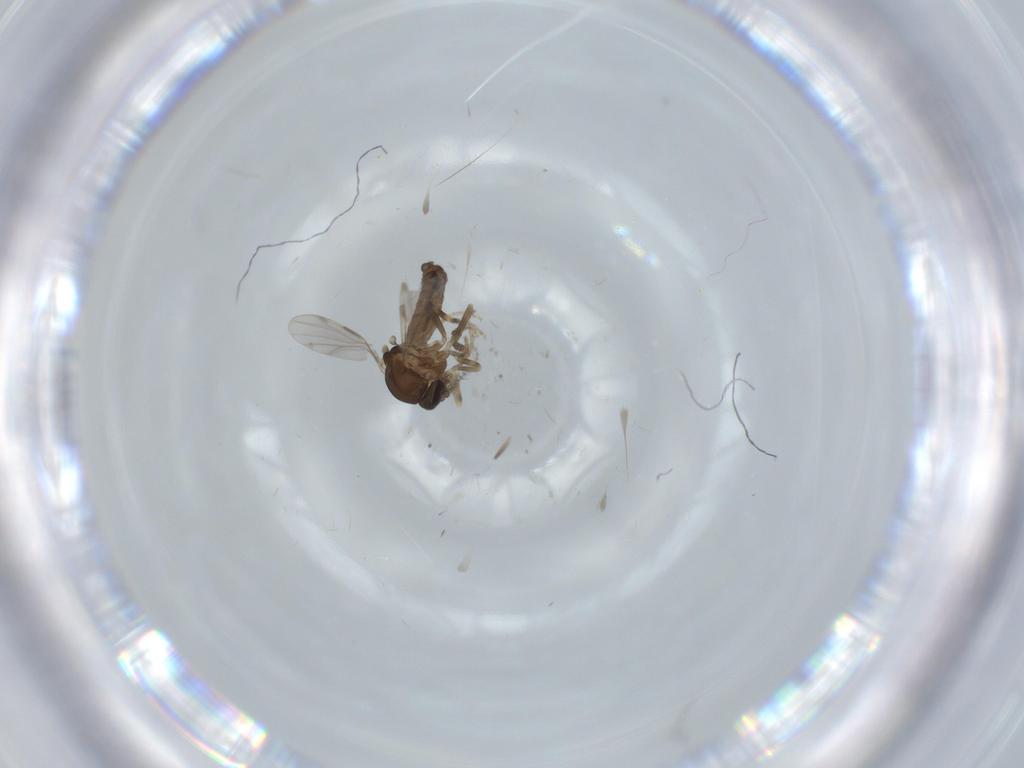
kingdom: Animalia
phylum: Arthropoda
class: Insecta
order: Diptera
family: Ceratopogonidae
